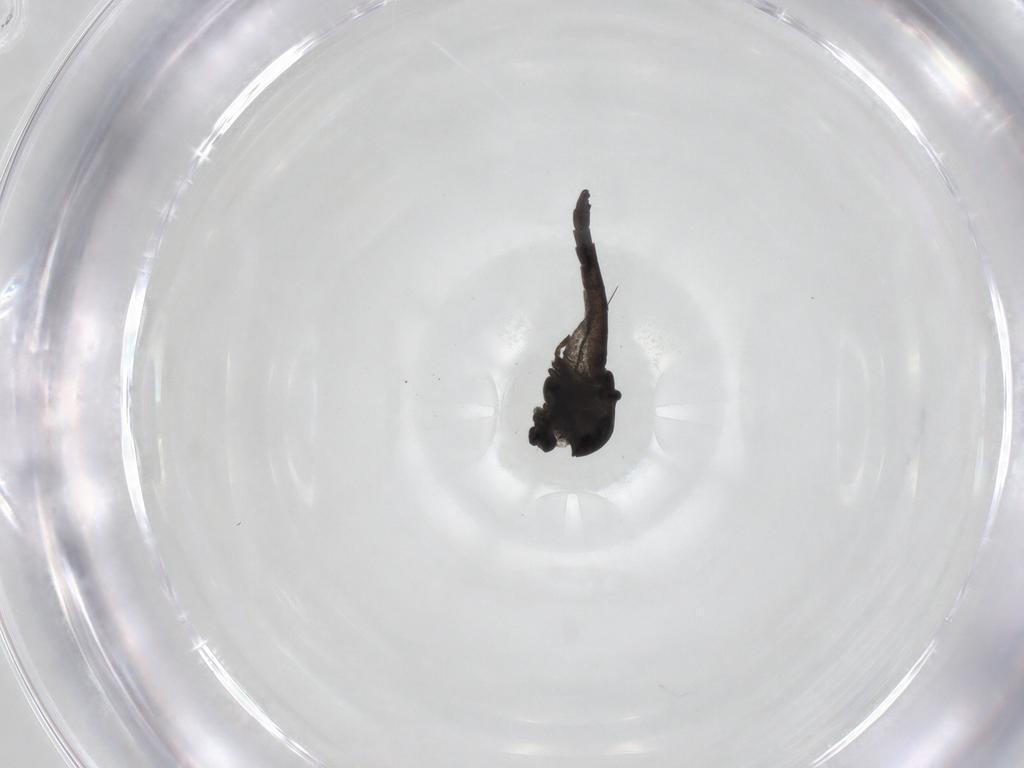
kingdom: Animalia
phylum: Arthropoda
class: Insecta
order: Diptera
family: Chironomidae
